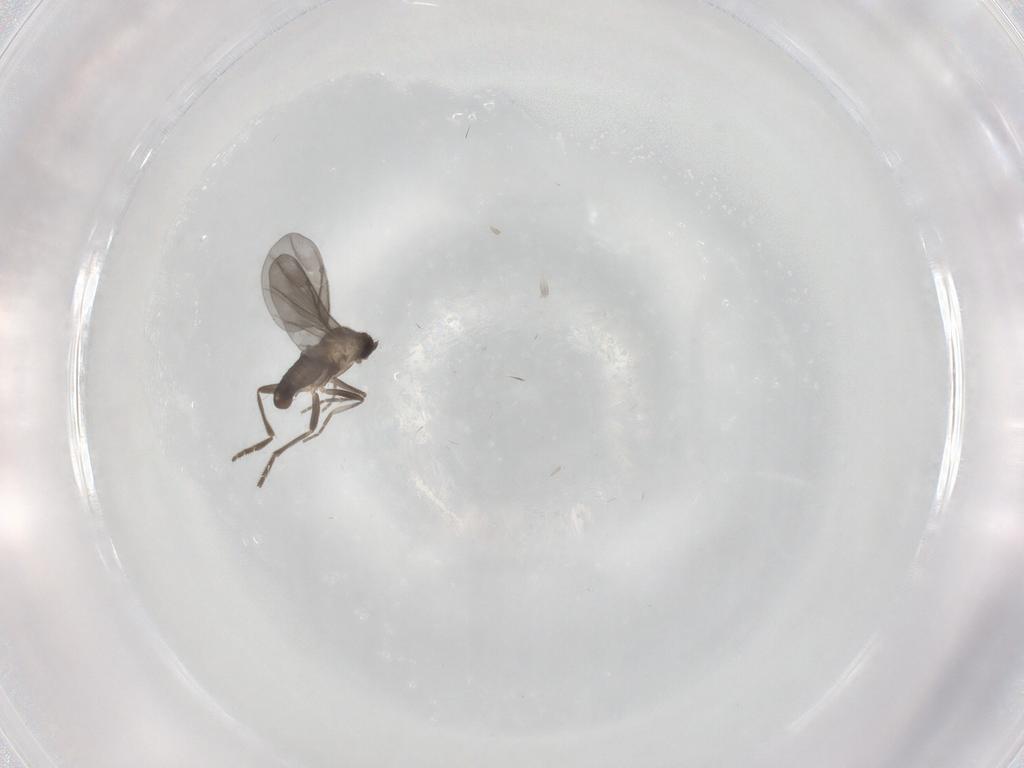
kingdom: Animalia
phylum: Arthropoda
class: Insecta
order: Diptera
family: Phoridae
